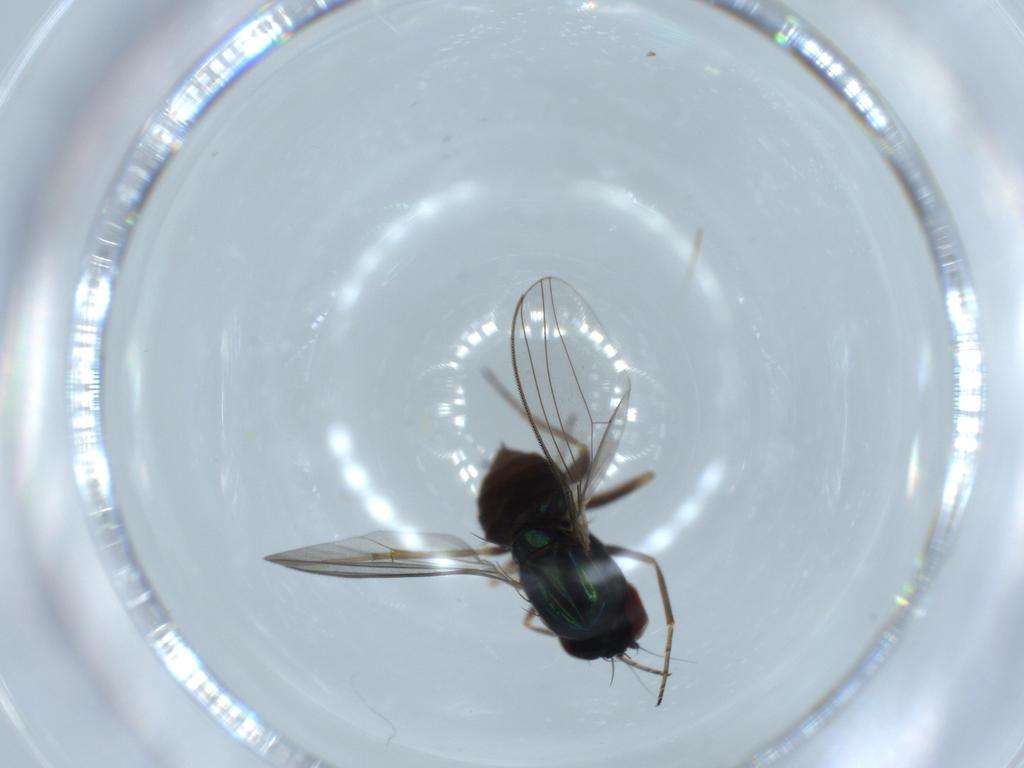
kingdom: Animalia
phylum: Arthropoda
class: Insecta
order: Diptera
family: Dolichopodidae
